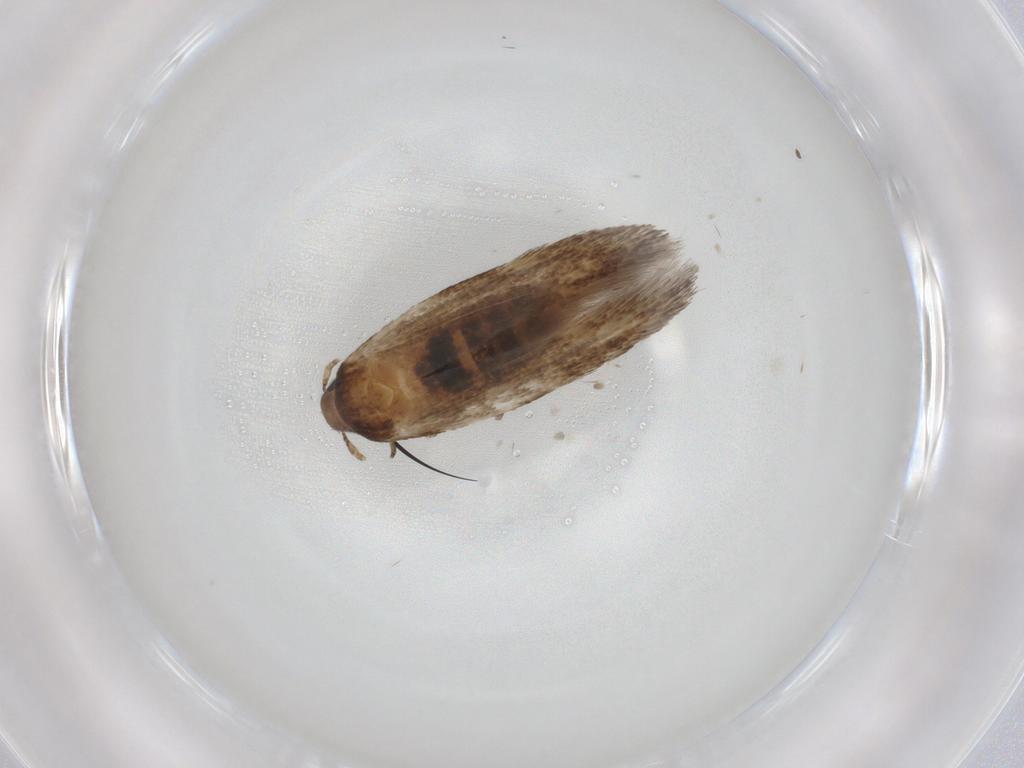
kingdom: Animalia
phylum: Arthropoda
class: Insecta
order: Lepidoptera
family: Cosmopterigidae
